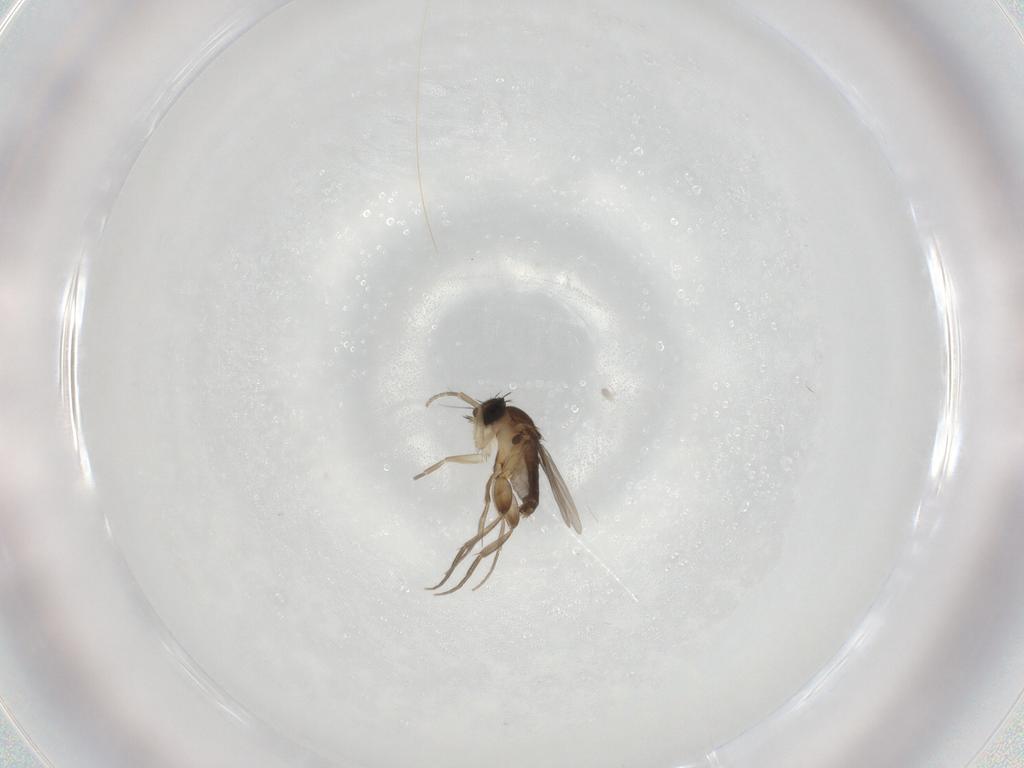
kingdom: Animalia
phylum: Arthropoda
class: Insecta
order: Diptera
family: Phoridae
